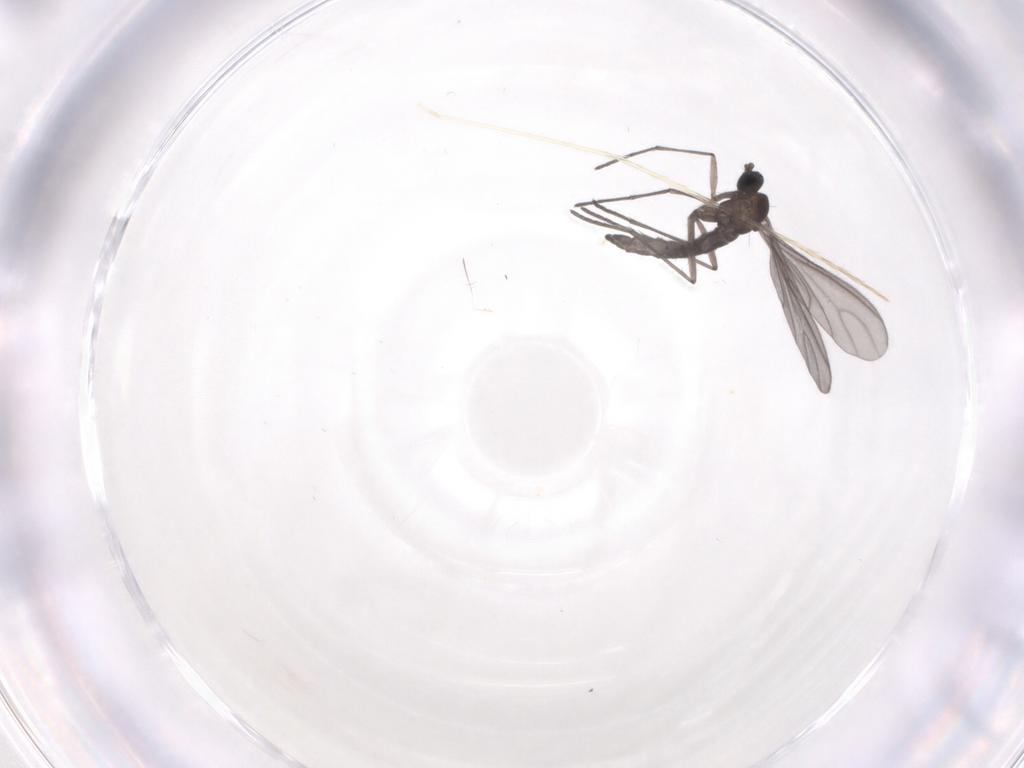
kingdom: Animalia
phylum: Arthropoda
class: Insecta
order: Diptera
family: Sciaridae
